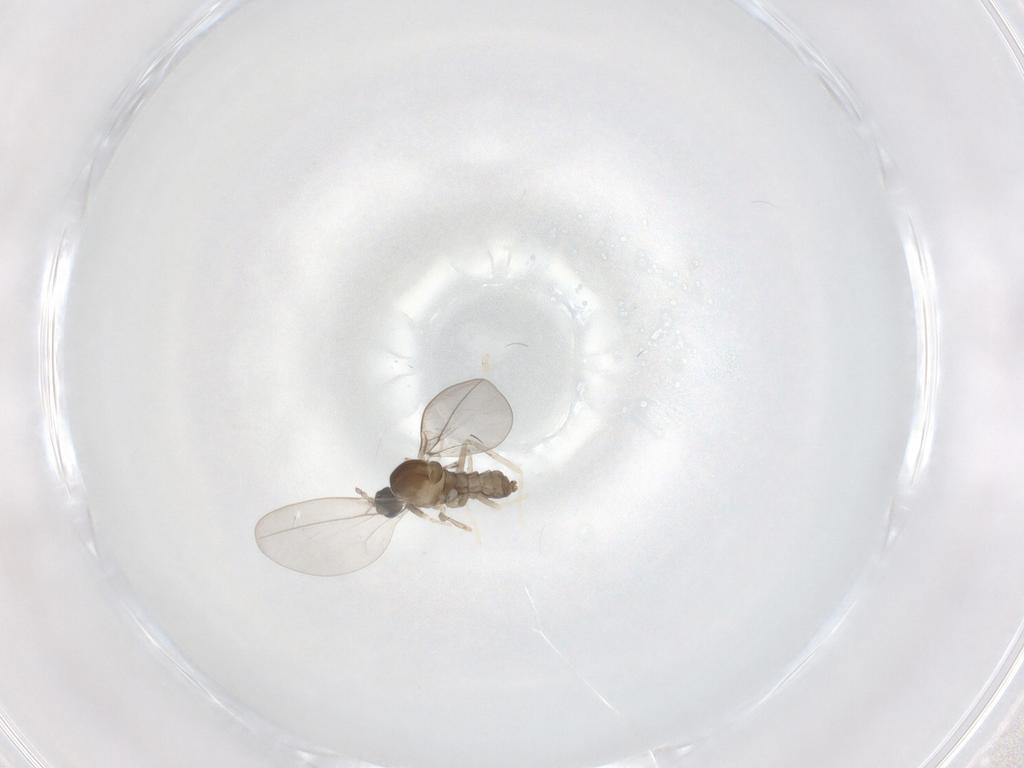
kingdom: Animalia
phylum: Arthropoda
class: Insecta
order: Diptera
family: Cecidomyiidae
